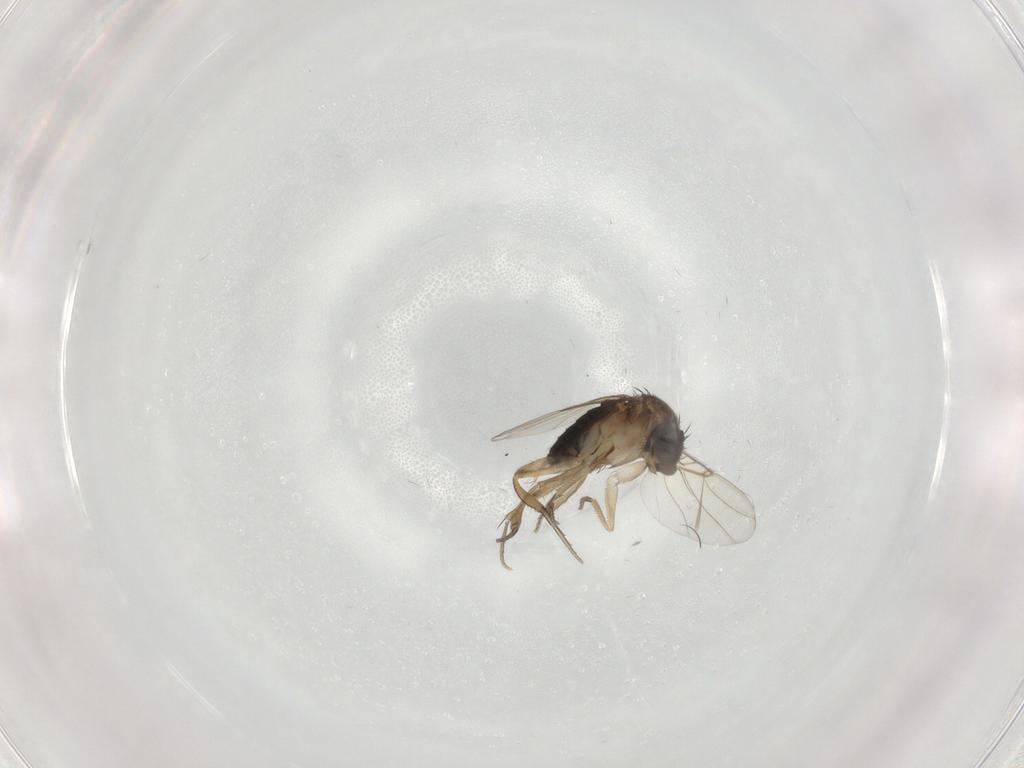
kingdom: Animalia
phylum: Arthropoda
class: Insecta
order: Diptera
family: Phoridae
